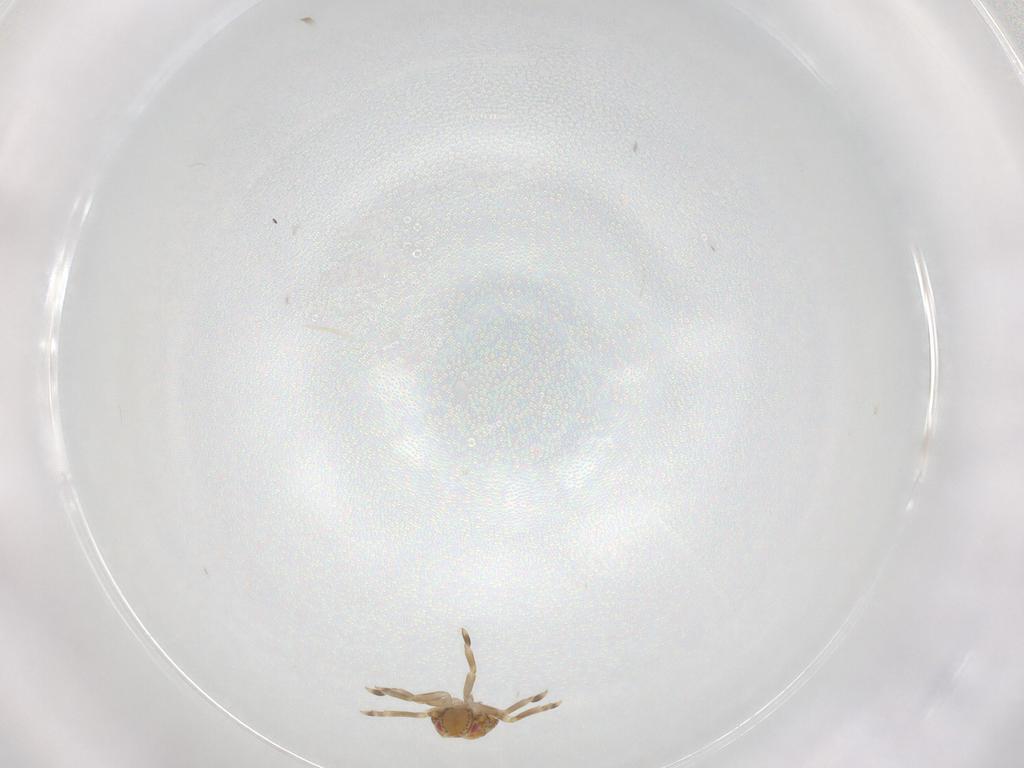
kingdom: Animalia
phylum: Arthropoda
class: Insecta
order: Hemiptera
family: Flatidae
